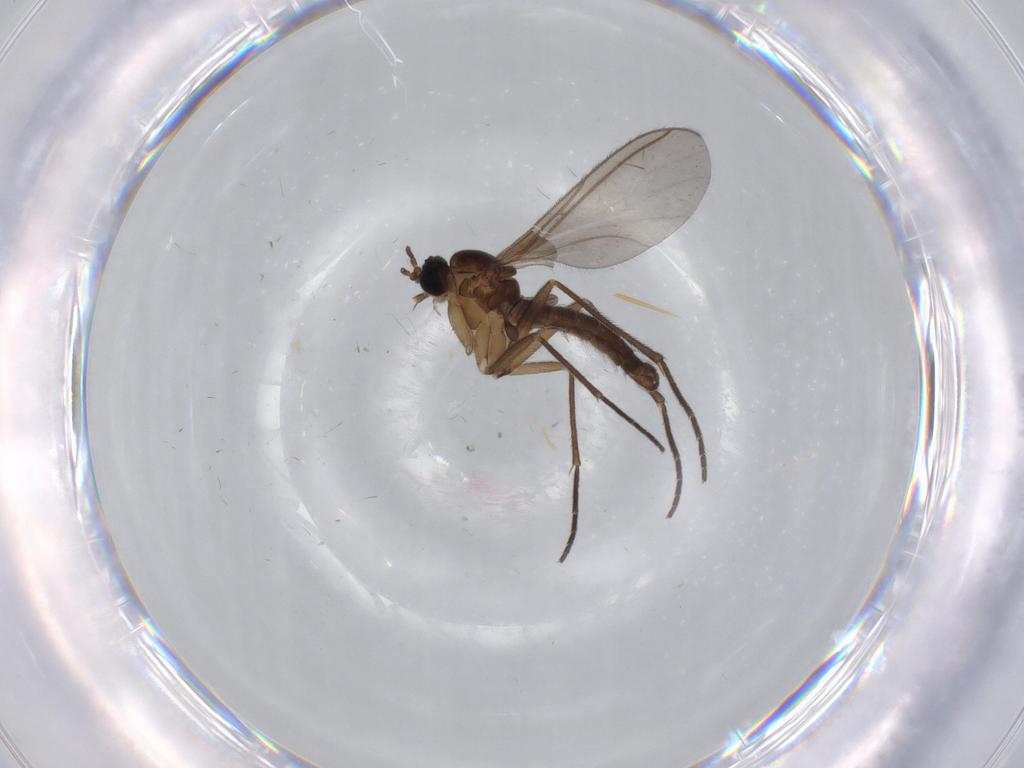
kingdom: Animalia
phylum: Arthropoda
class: Insecta
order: Diptera
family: Sciaridae
